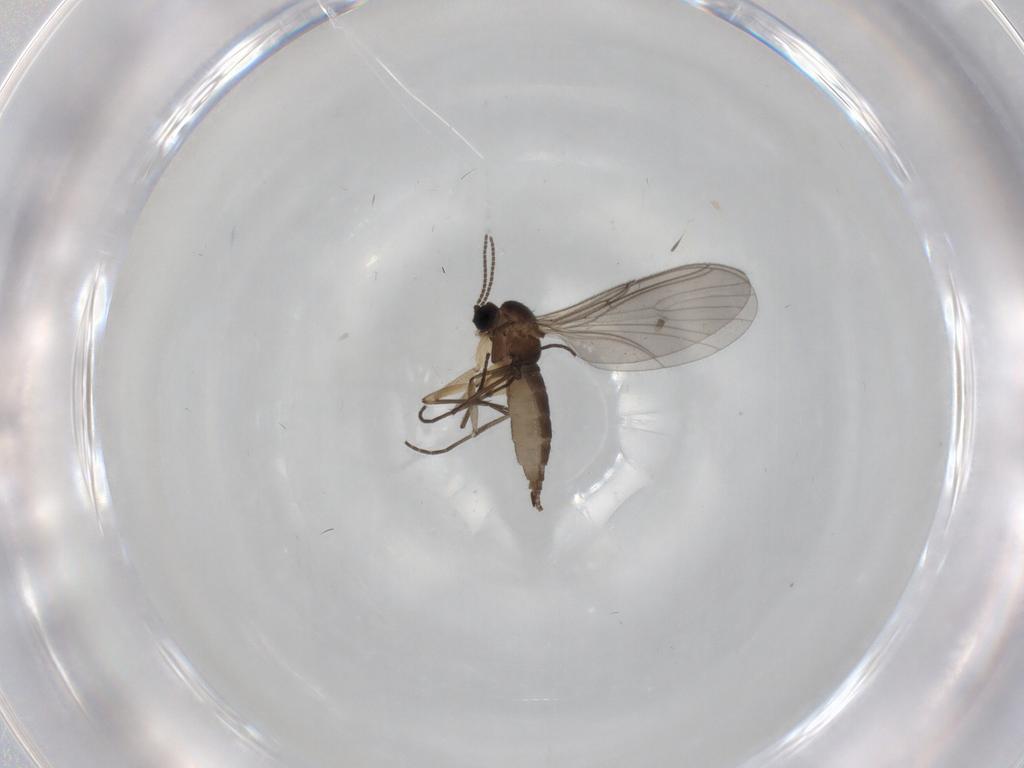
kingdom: Animalia
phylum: Arthropoda
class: Insecta
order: Diptera
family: Sciaridae
